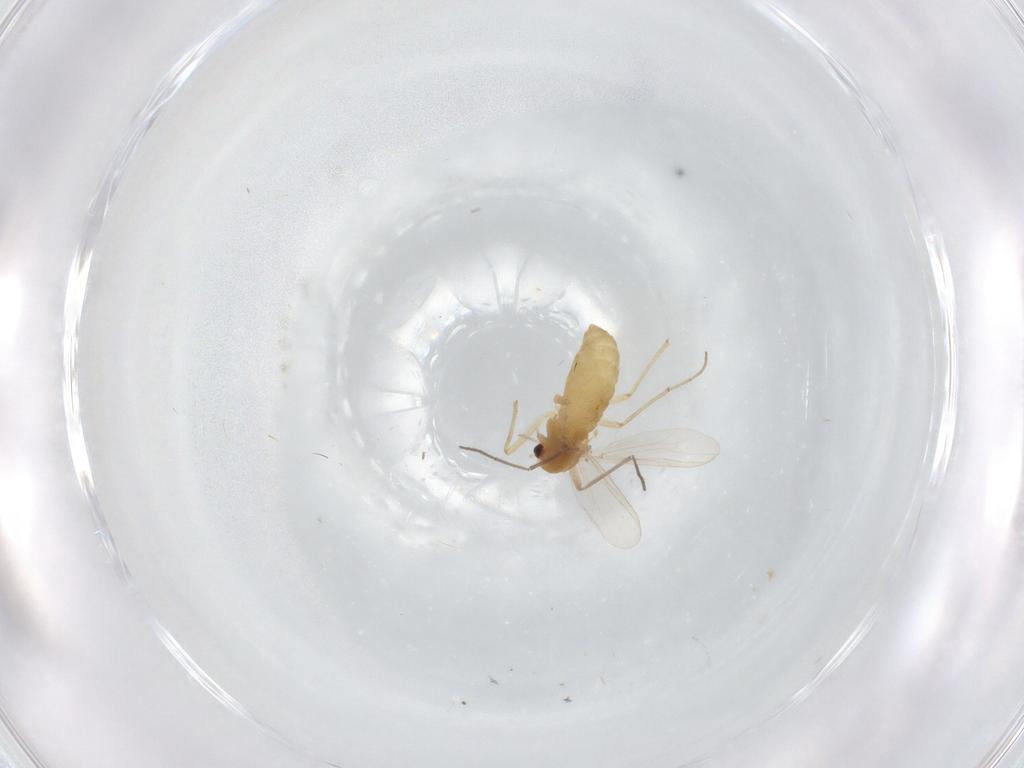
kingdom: Animalia
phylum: Arthropoda
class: Insecta
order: Diptera
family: Chironomidae
